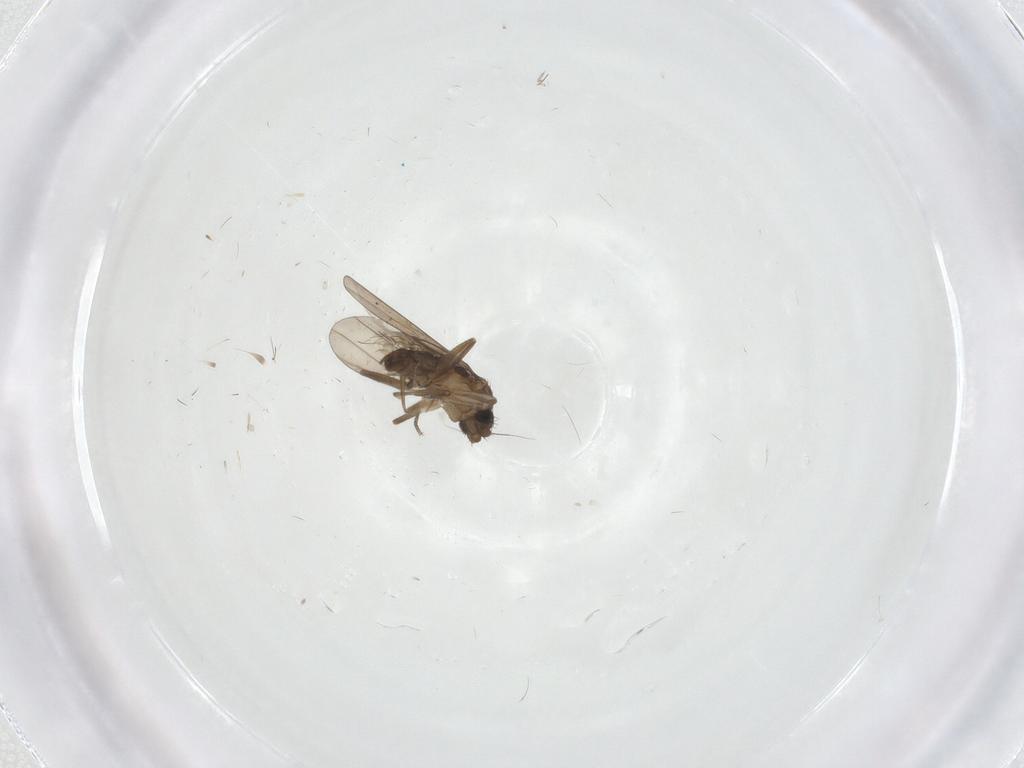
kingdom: Animalia
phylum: Arthropoda
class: Insecta
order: Diptera
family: Phoridae
